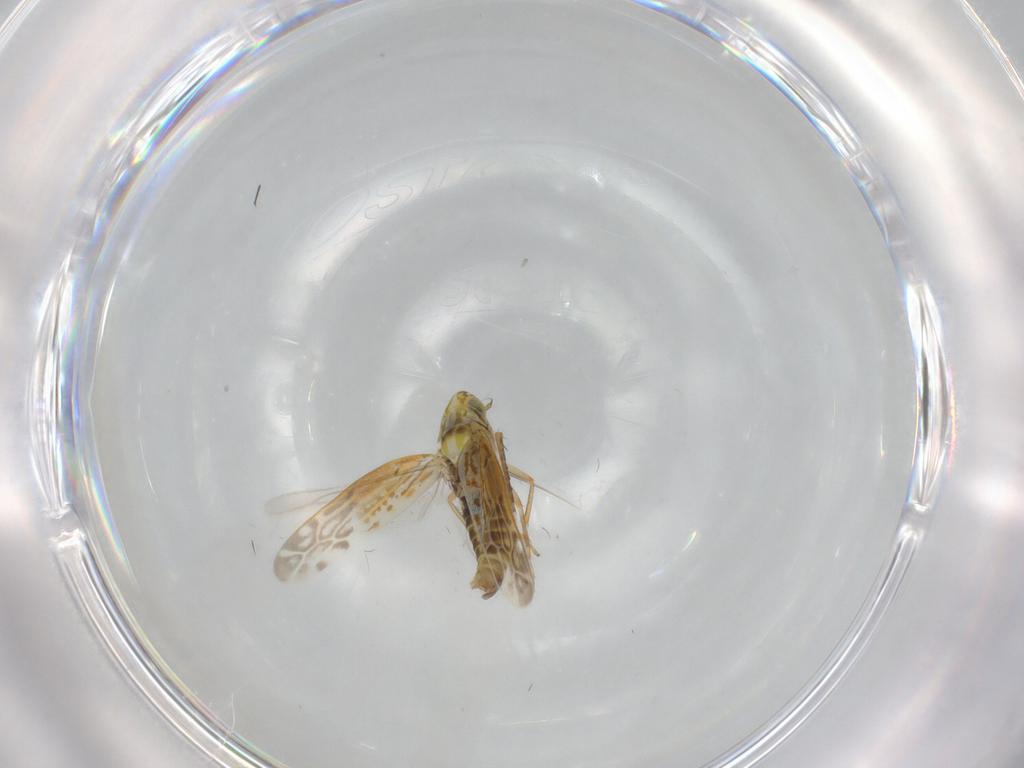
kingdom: Animalia
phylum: Arthropoda
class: Insecta
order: Hemiptera
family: Cicadellidae
